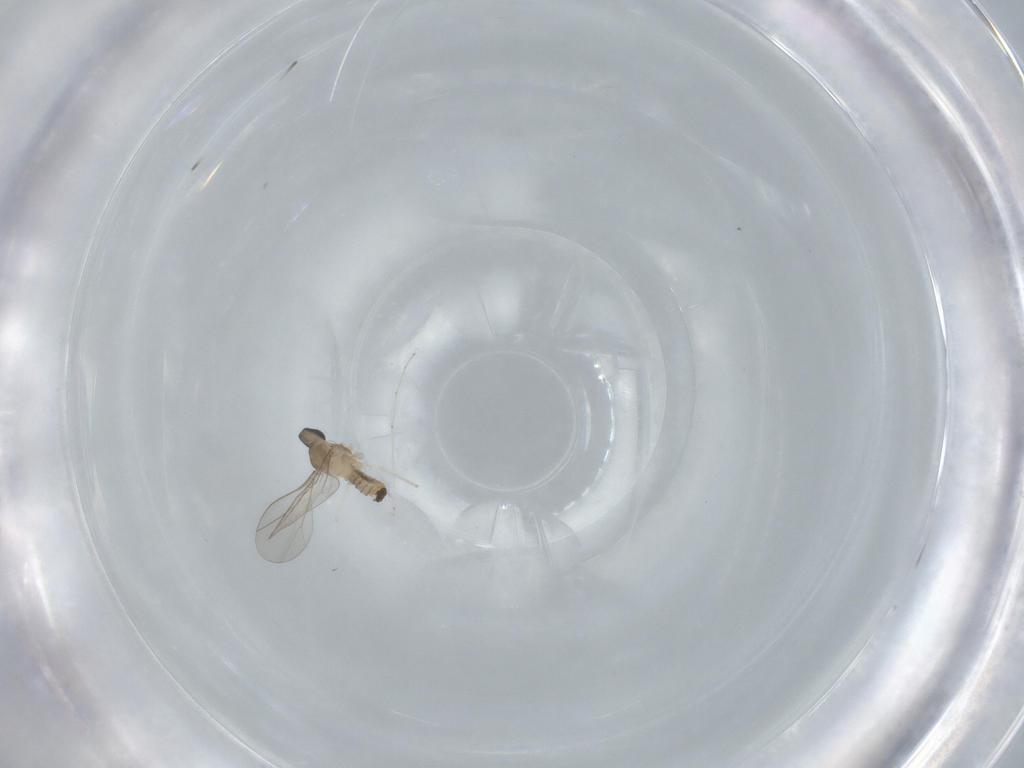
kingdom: Animalia
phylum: Arthropoda
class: Insecta
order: Diptera
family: Cecidomyiidae
